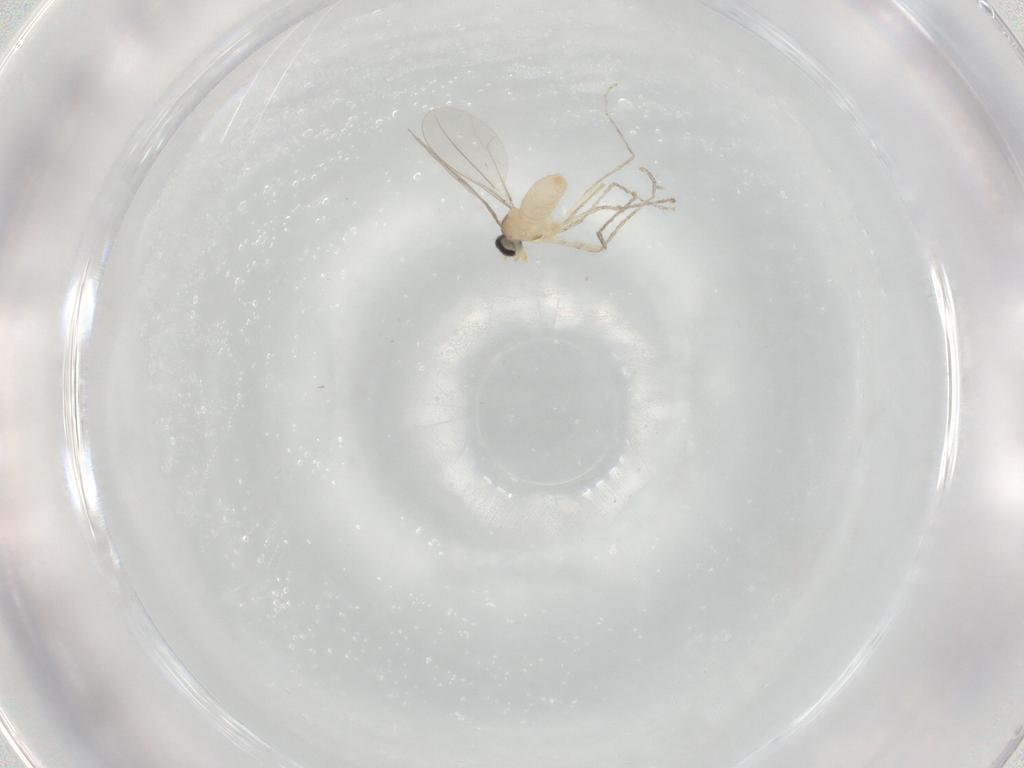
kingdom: Animalia
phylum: Arthropoda
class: Insecta
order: Diptera
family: Cecidomyiidae
